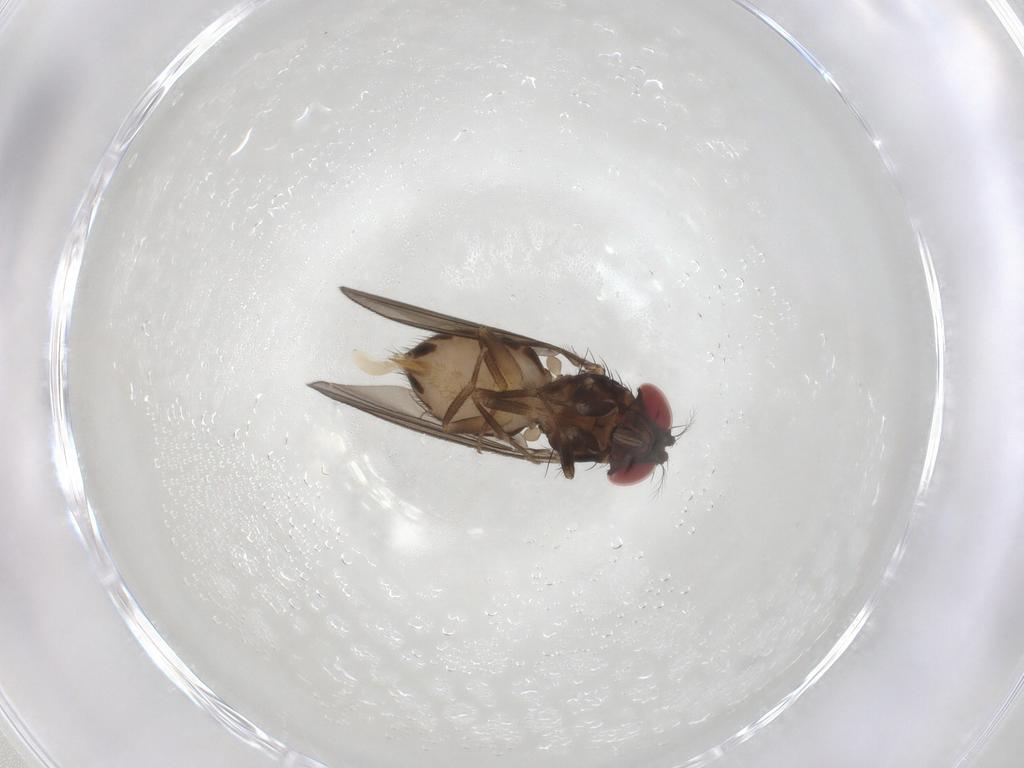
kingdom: Animalia
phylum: Arthropoda
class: Insecta
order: Diptera
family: Drosophilidae
